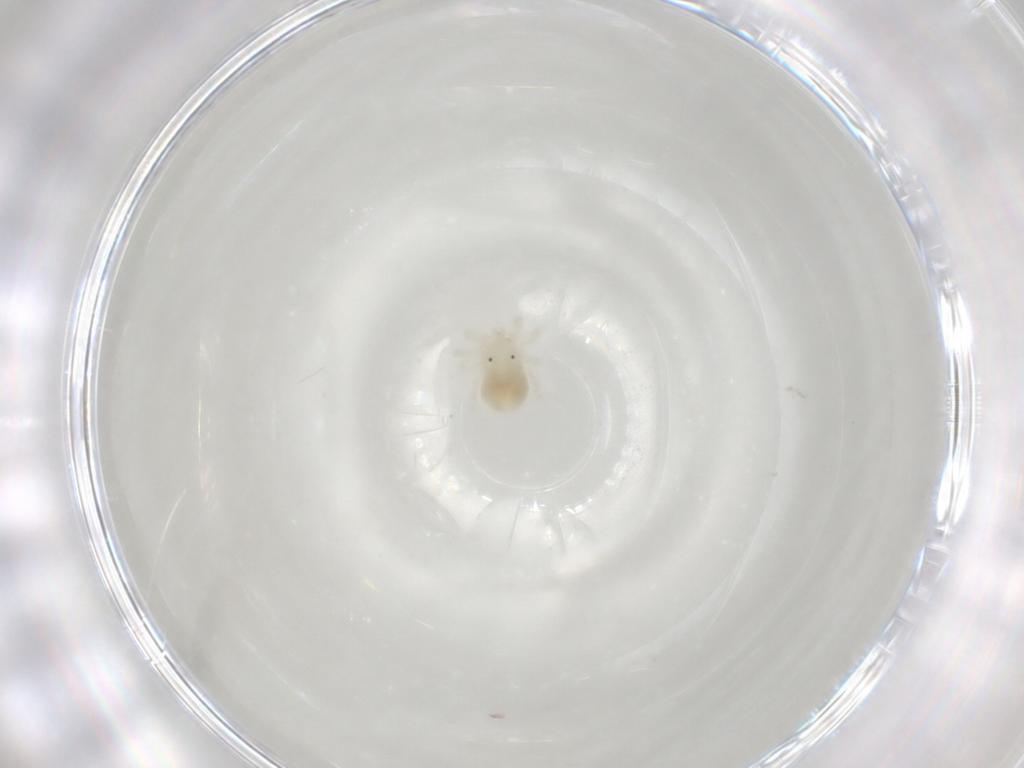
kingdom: Animalia
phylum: Arthropoda
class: Arachnida
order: Trombidiformes
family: Anystidae
